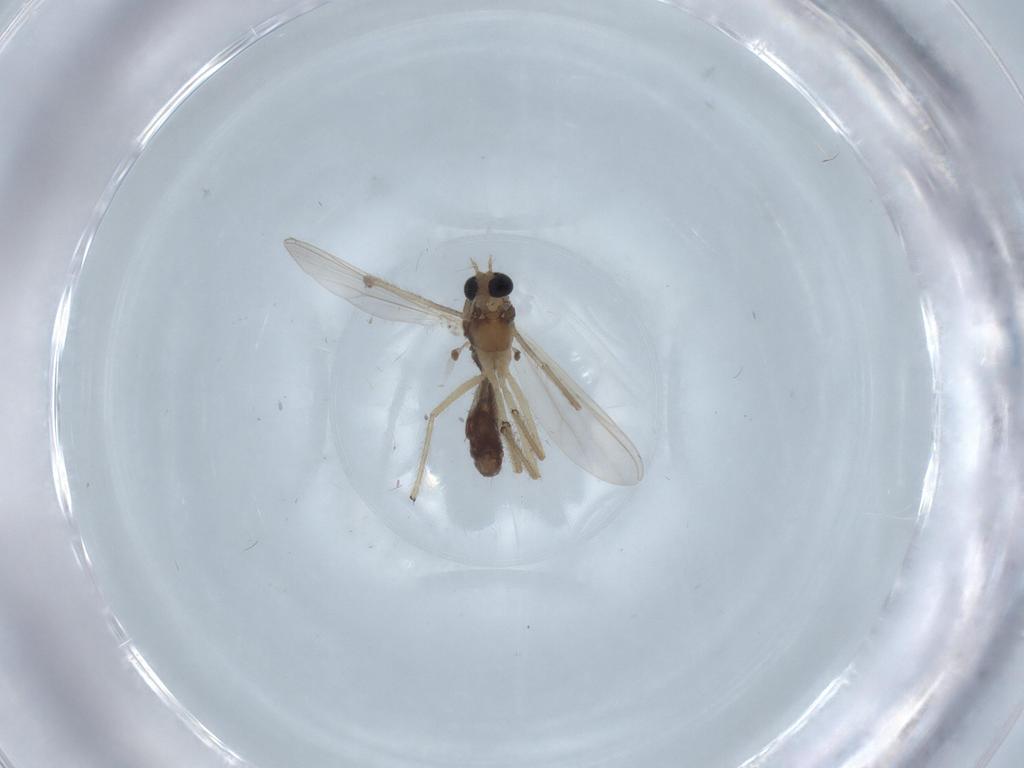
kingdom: Animalia
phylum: Arthropoda
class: Insecta
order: Diptera
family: Chironomidae
